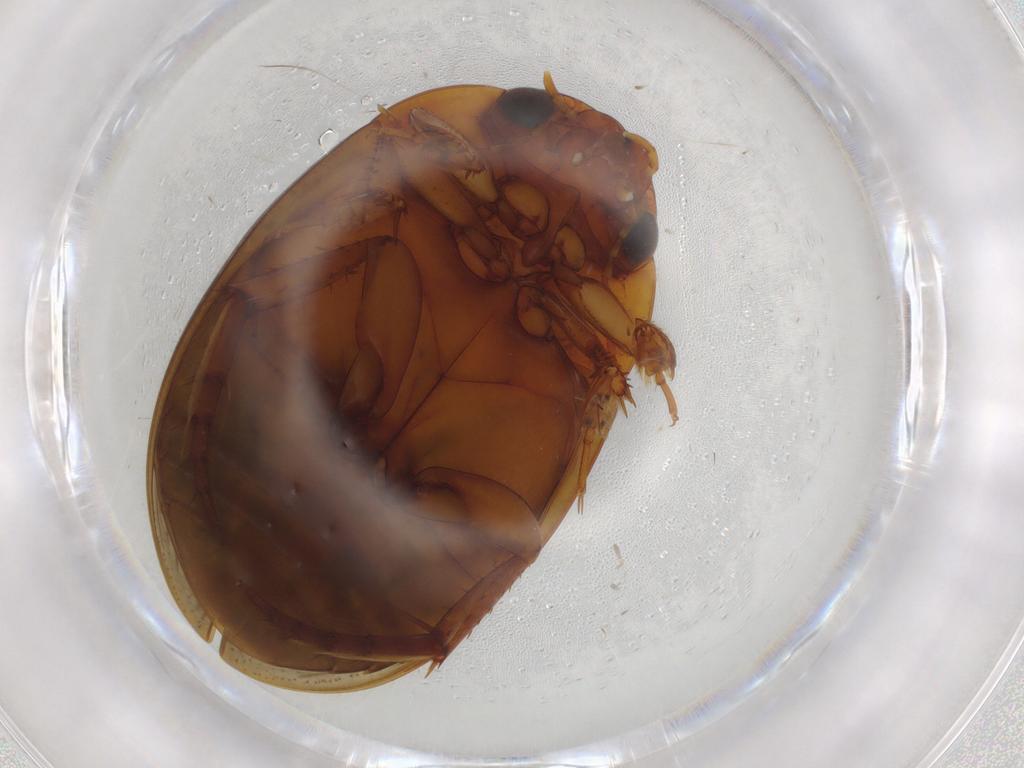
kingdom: Animalia
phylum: Arthropoda
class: Insecta
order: Coleoptera
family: Dytiscidae
